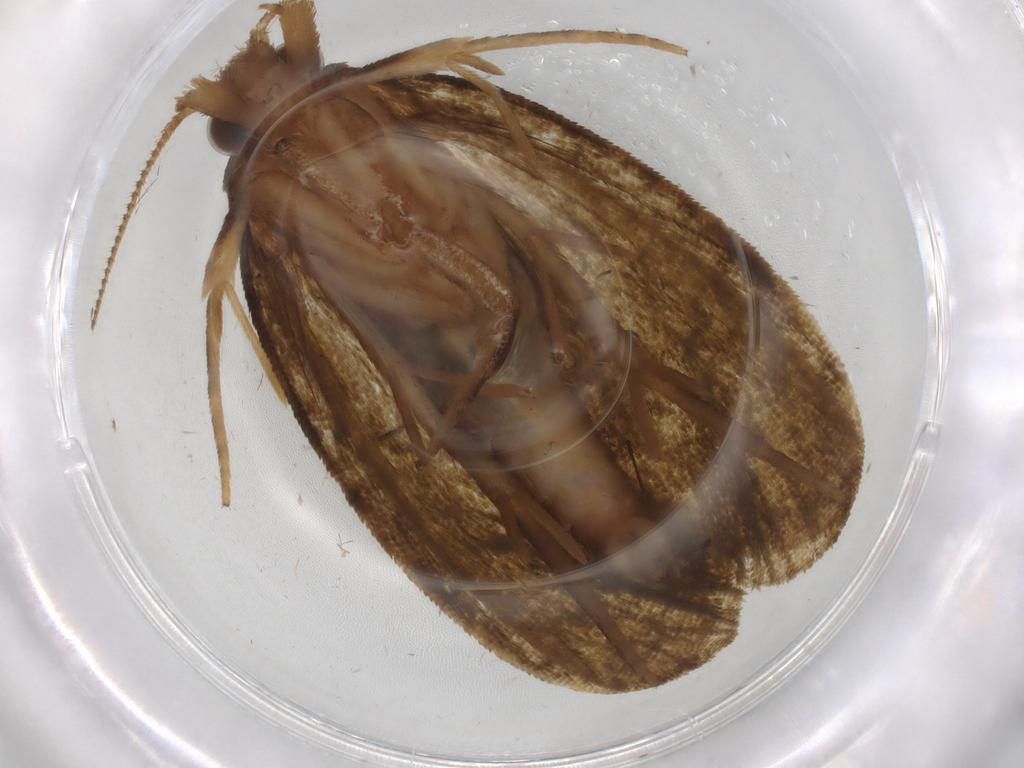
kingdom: Animalia
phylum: Arthropoda
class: Insecta
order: Lepidoptera
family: Geometridae
